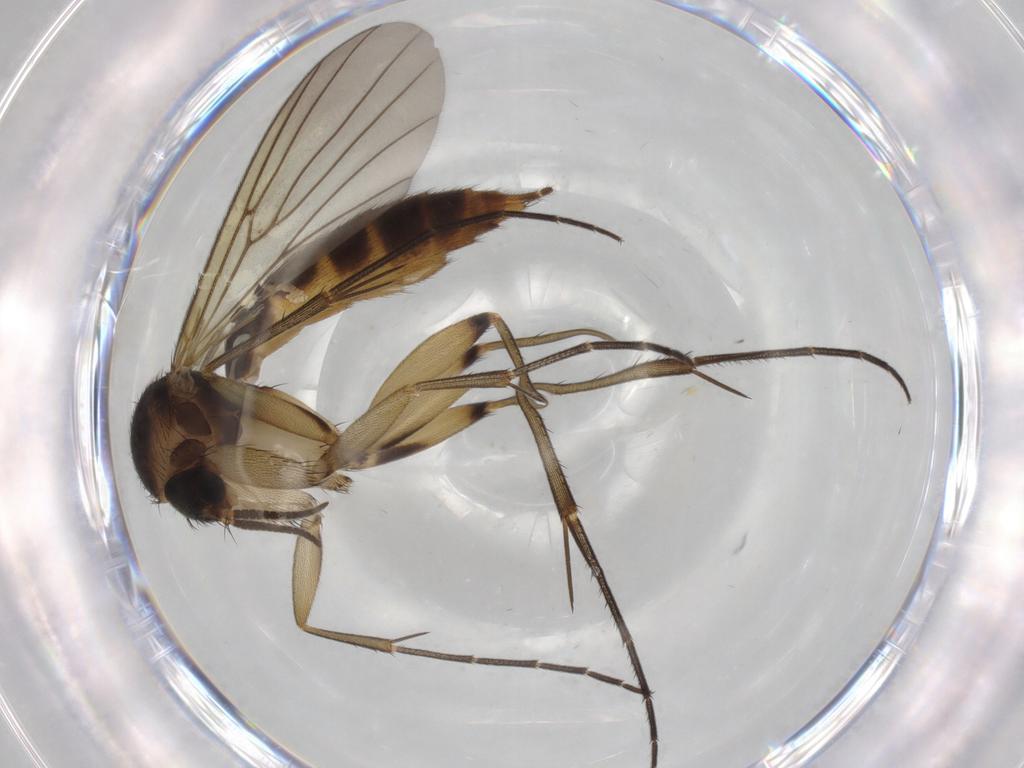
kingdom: Animalia
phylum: Arthropoda
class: Insecta
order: Diptera
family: Mycetophilidae
